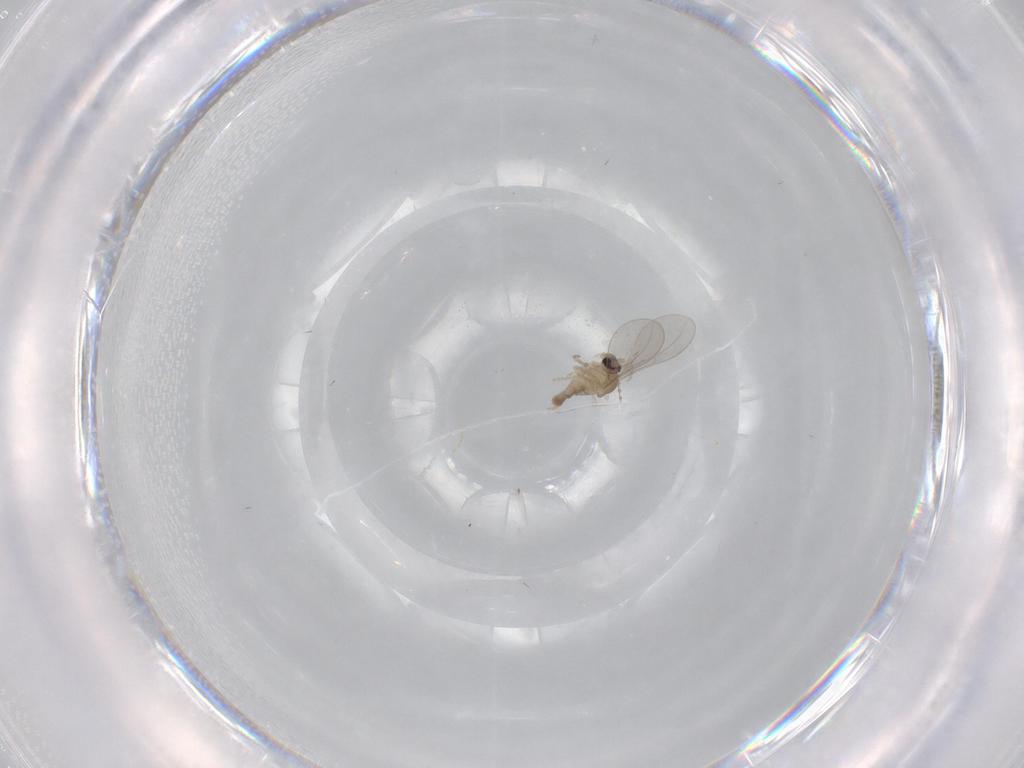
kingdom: Animalia
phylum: Arthropoda
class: Insecta
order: Diptera
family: Cecidomyiidae
